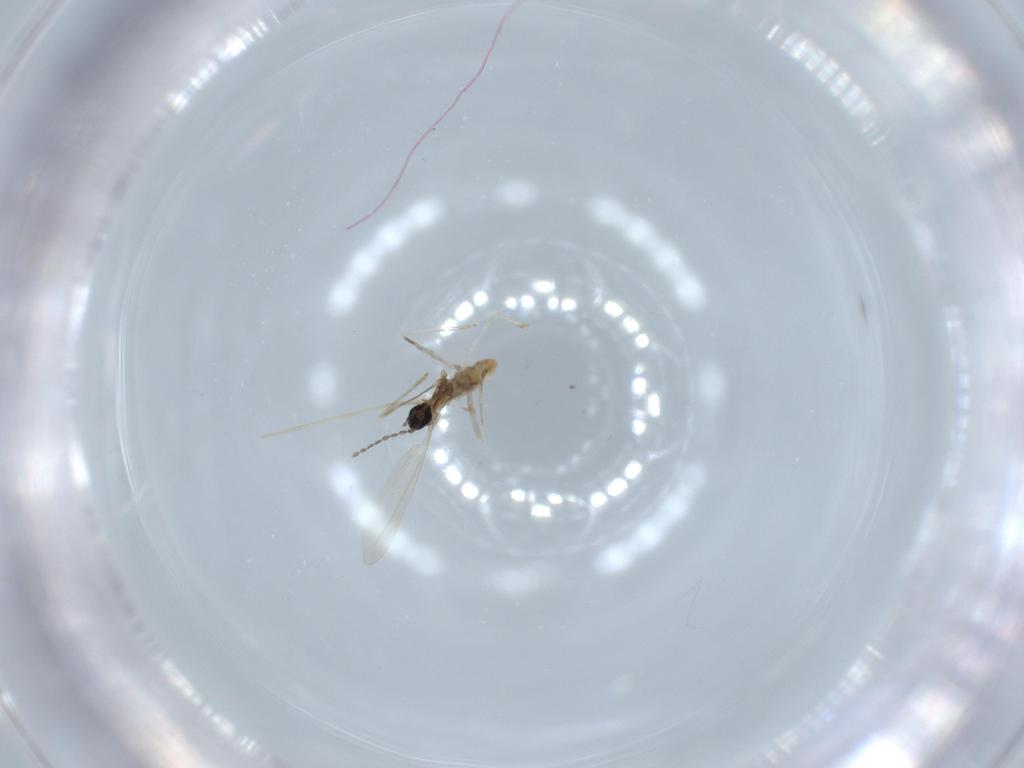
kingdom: Animalia
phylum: Arthropoda
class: Insecta
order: Diptera
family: Cecidomyiidae
